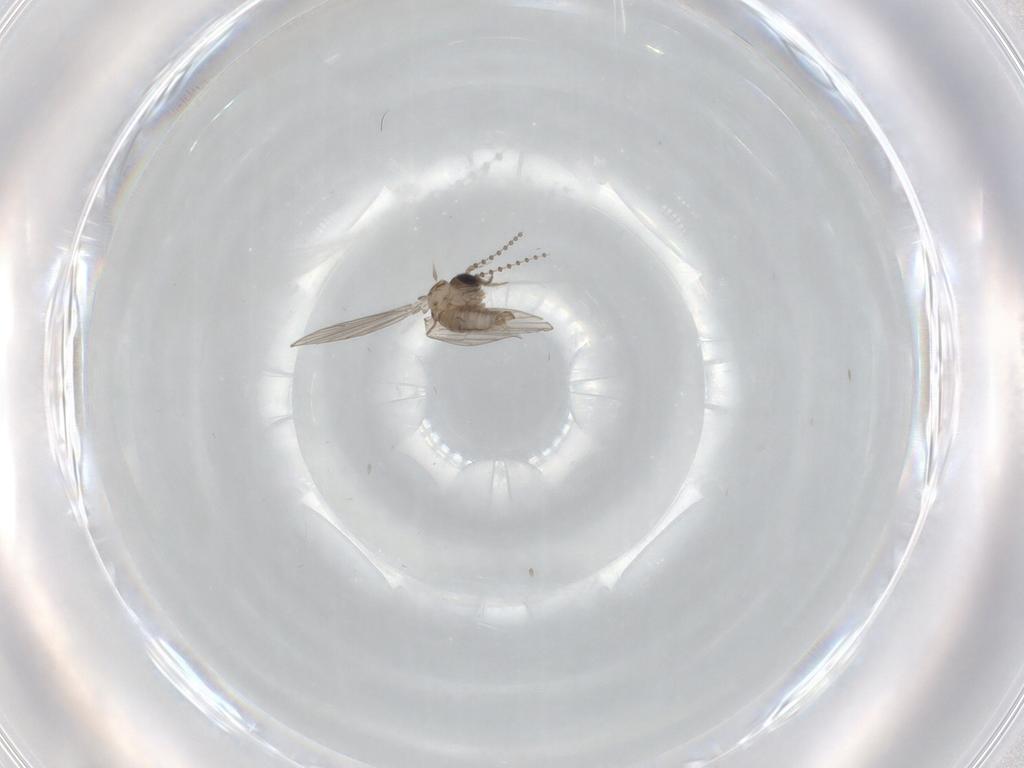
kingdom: Animalia
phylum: Arthropoda
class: Insecta
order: Diptera
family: Psychodidae
